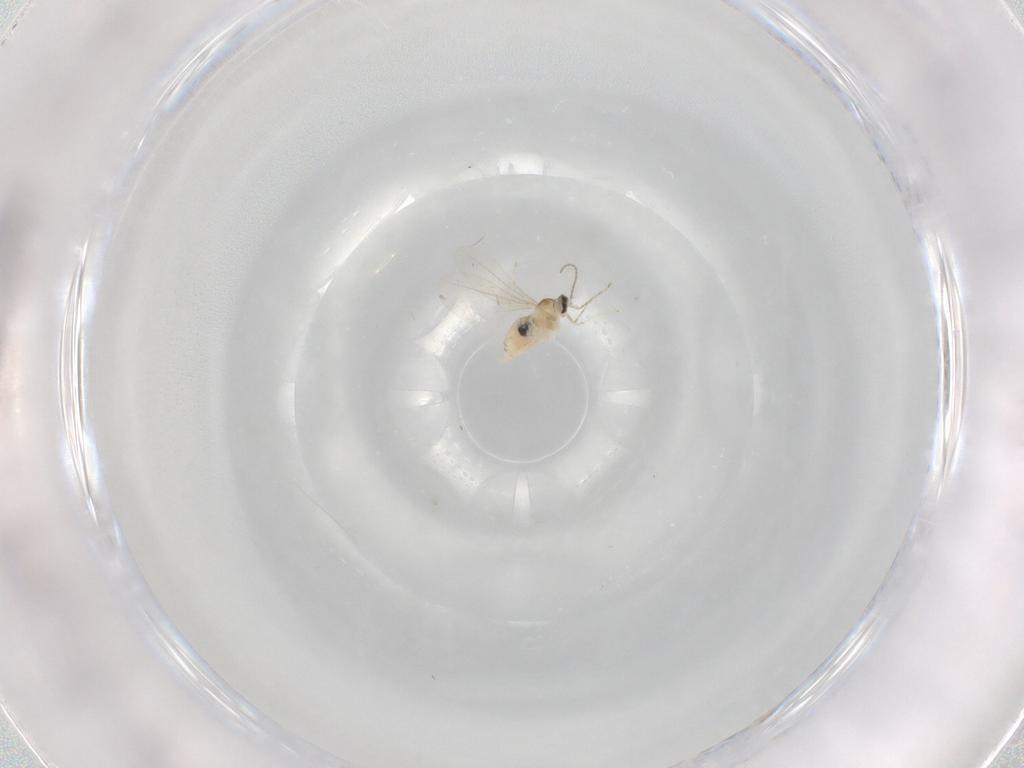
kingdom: Animalia
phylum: Arthropoda
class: Insecta
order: Diptera
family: Cecidomyiidae
